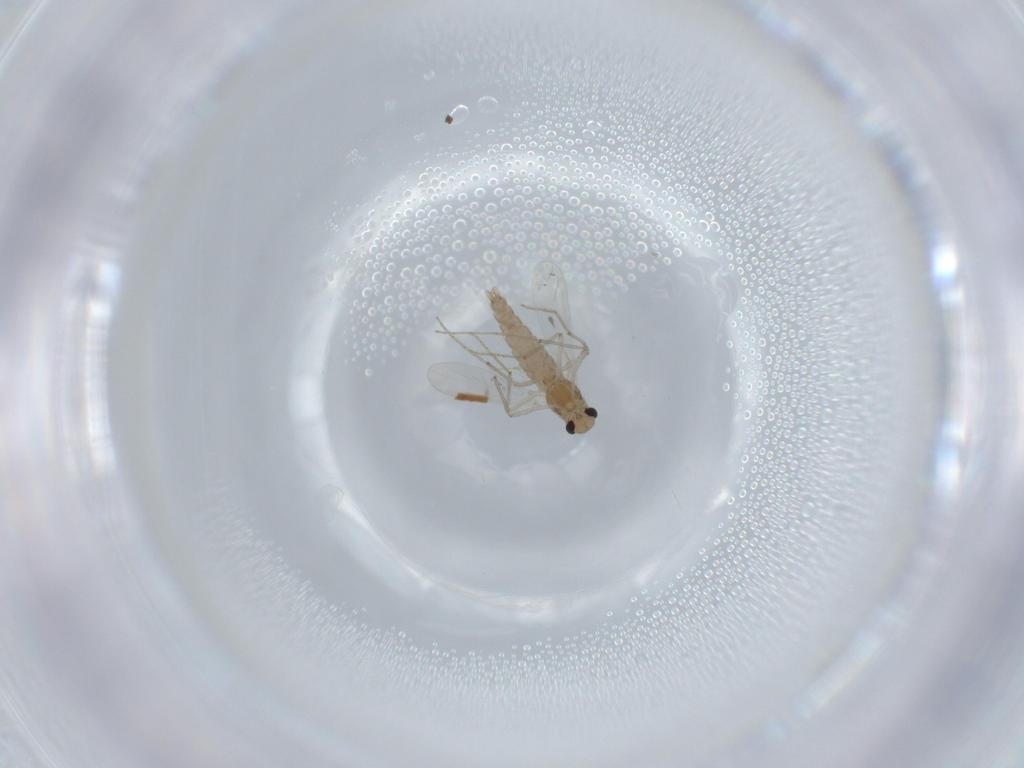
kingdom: Animalia
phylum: Arthropoda
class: Insecta
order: Diptera
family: Chironomidae
